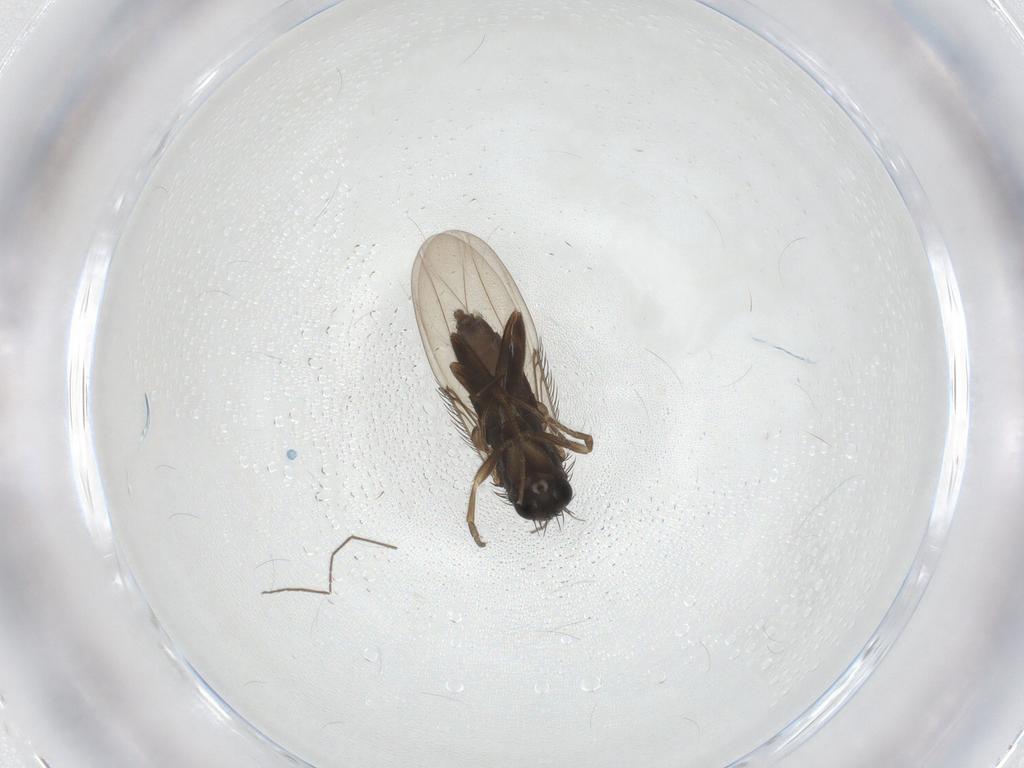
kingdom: Animalia
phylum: Arthropoda
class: Insecta
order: Diptera
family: Phoridae
